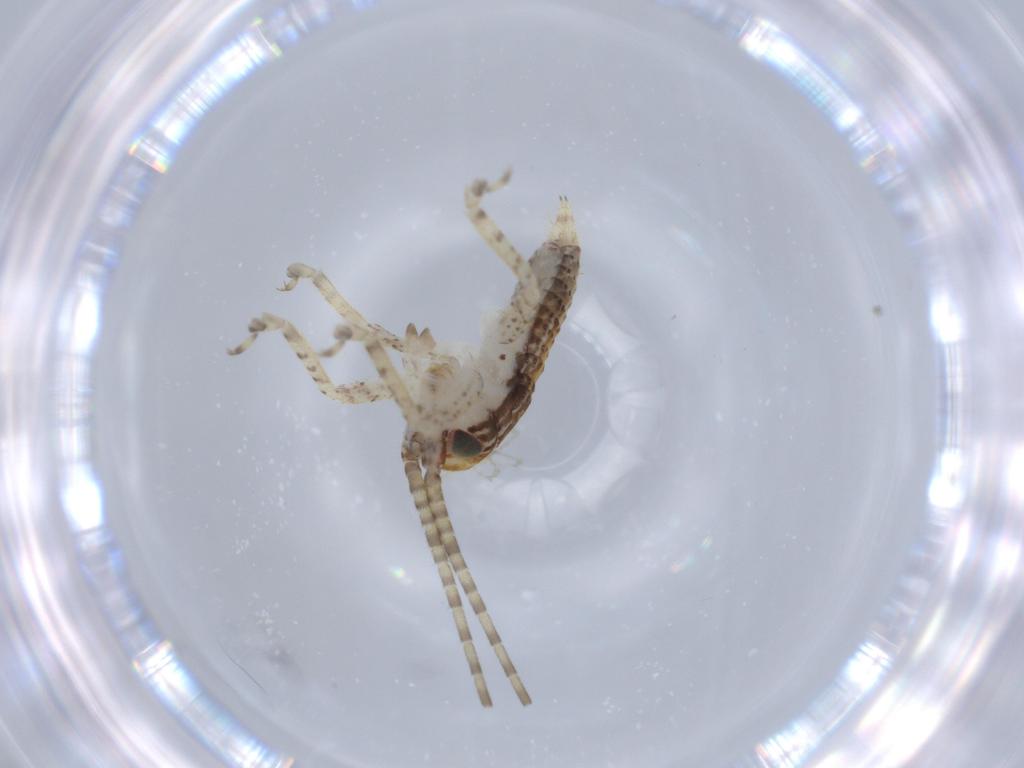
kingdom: Animalia
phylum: Arthropoda
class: Insecta
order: Orthoptera
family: Gryllidae
